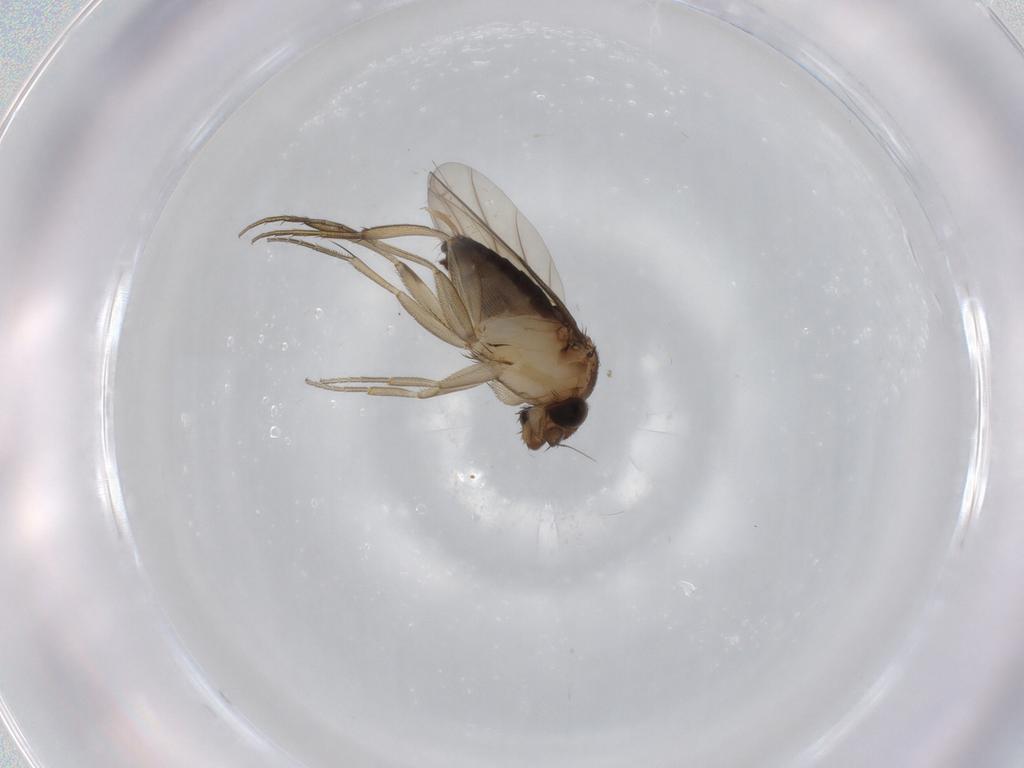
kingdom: Animalia
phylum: Arthropoda
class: Insecta
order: Diptera
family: Phoridae
